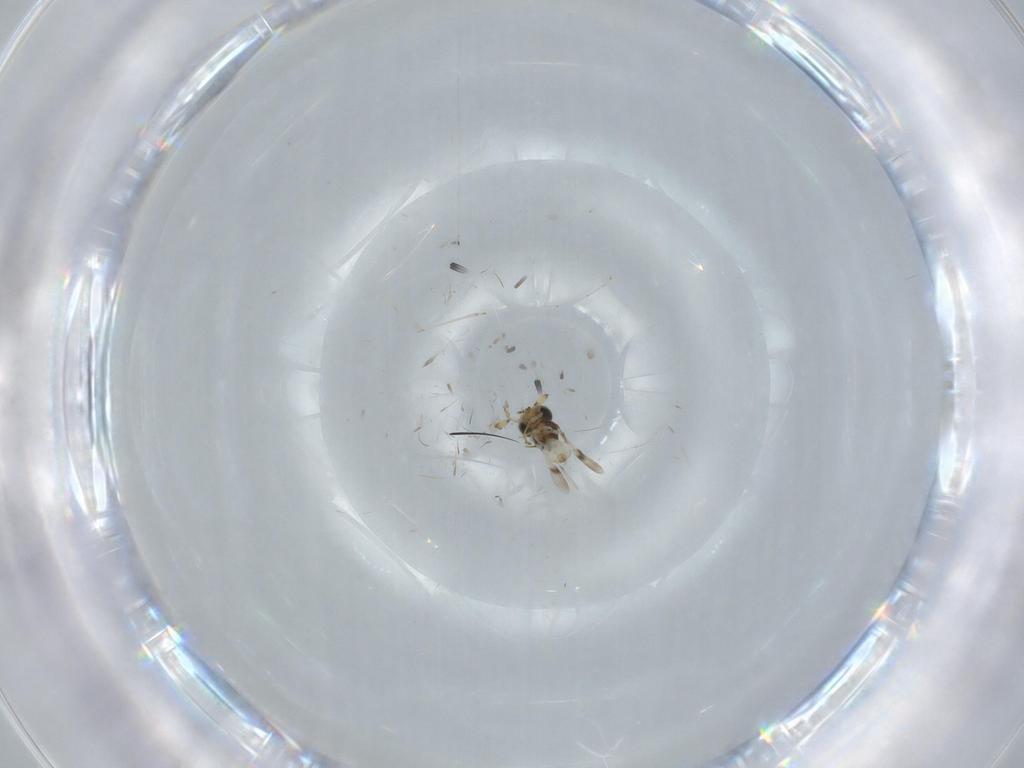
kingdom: Animalia
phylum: Arthropoda
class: Insecta
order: Hymenoptera
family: Scelionidae
